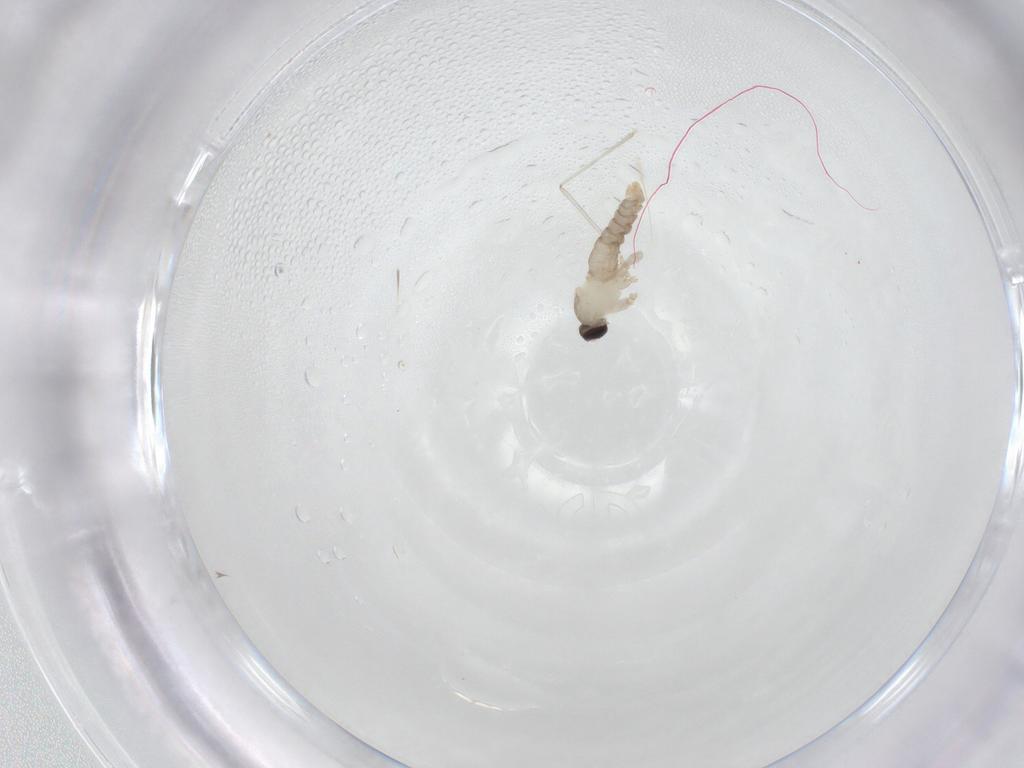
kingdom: Animalia
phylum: Arthropoda
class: Insecta
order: Diptera
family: Cecidomyiidae
